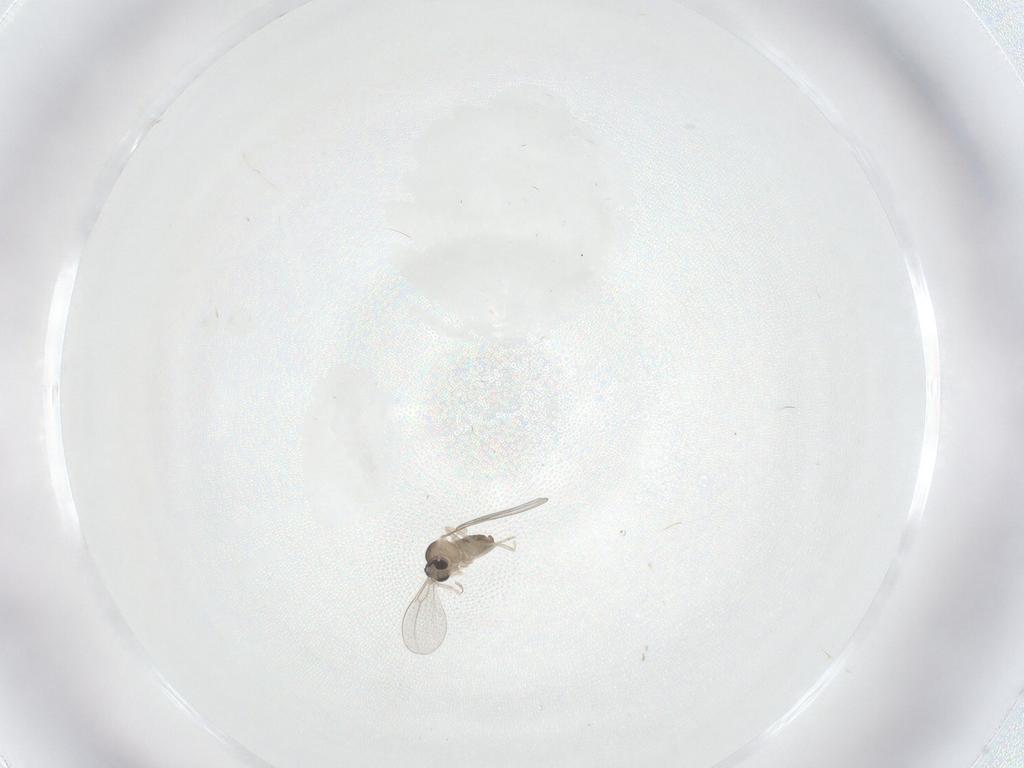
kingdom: Animalia
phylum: Arthropoda
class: Insecta
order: Diptera
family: Cecidomyiidae
